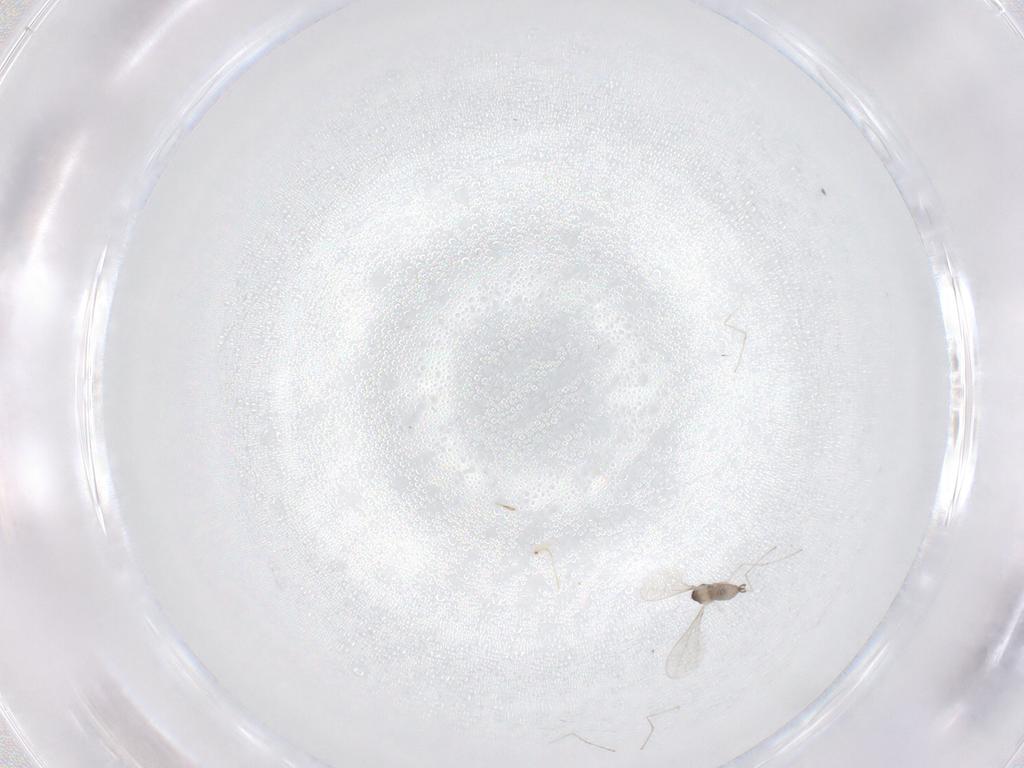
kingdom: Animalia
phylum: Arthropoda
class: Insecta
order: Diptera
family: Cecidomyiidae
